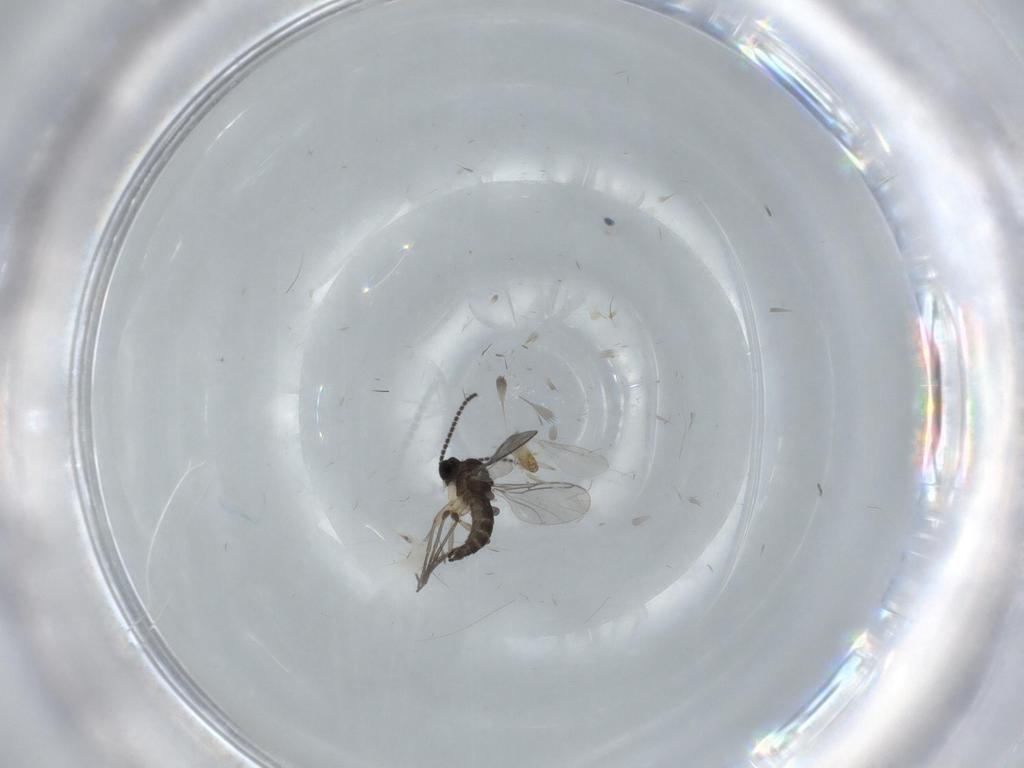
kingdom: Animalia
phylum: Arthropoda
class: Insecta
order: Diptera
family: Sciaridae
